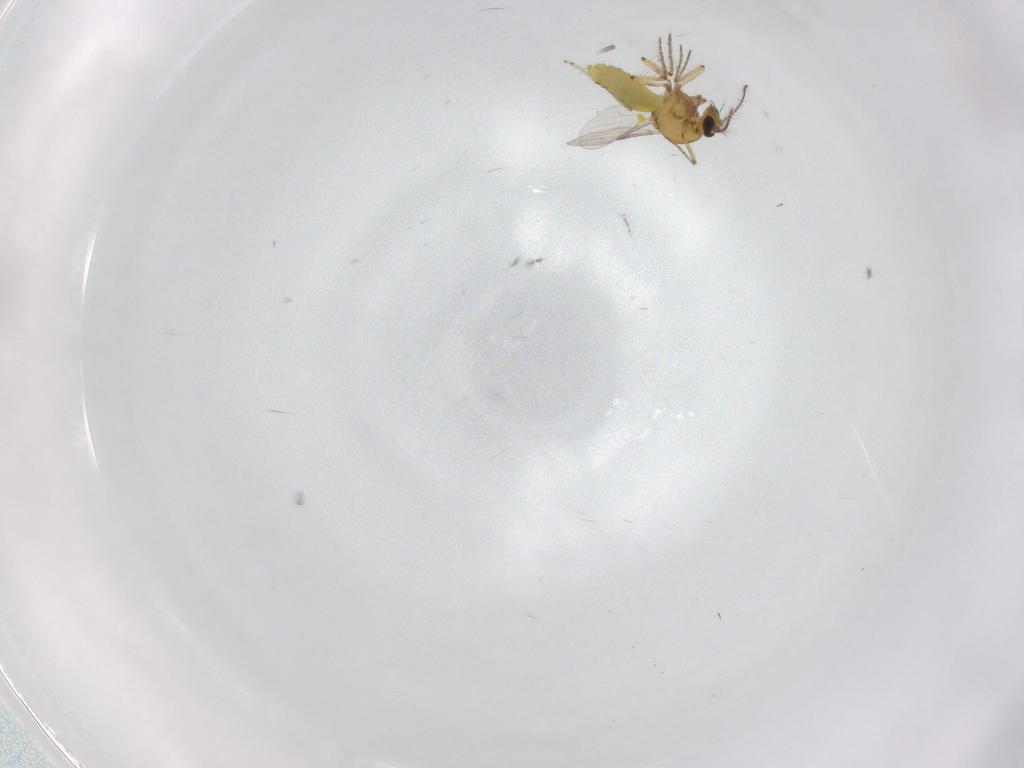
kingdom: Animalia
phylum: Arthropoda
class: Insecta
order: Diptera
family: Ceratopogonidae
